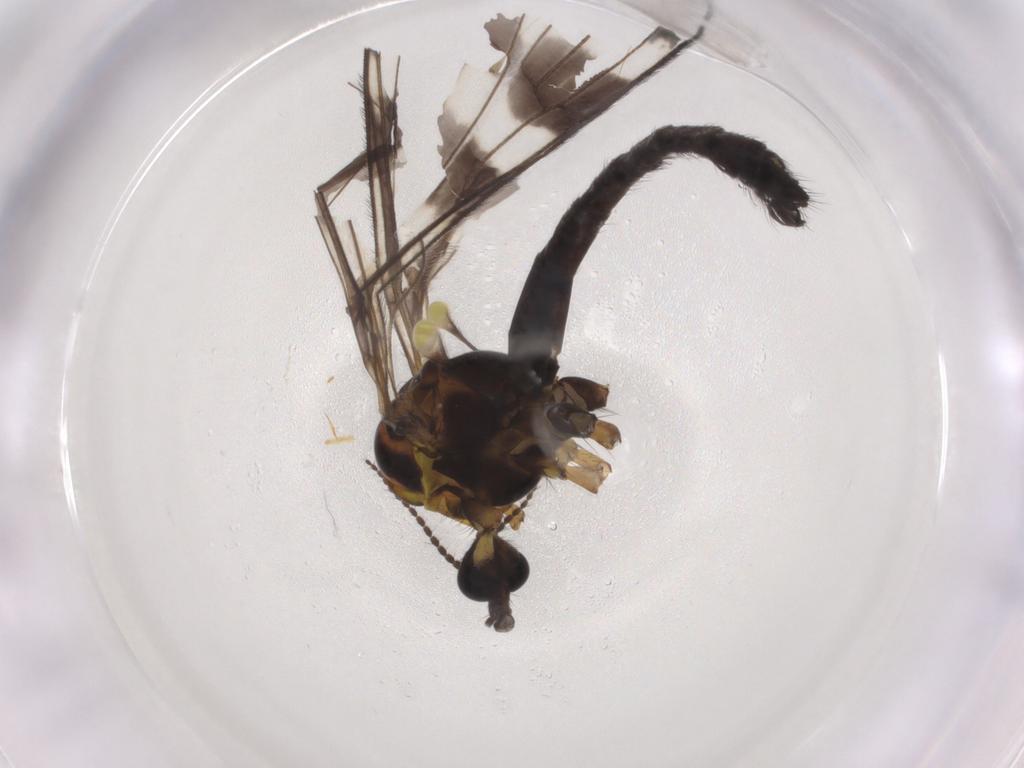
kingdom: Animalia
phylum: Arthropoda
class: Insecta
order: Diptera
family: Limoniidae
